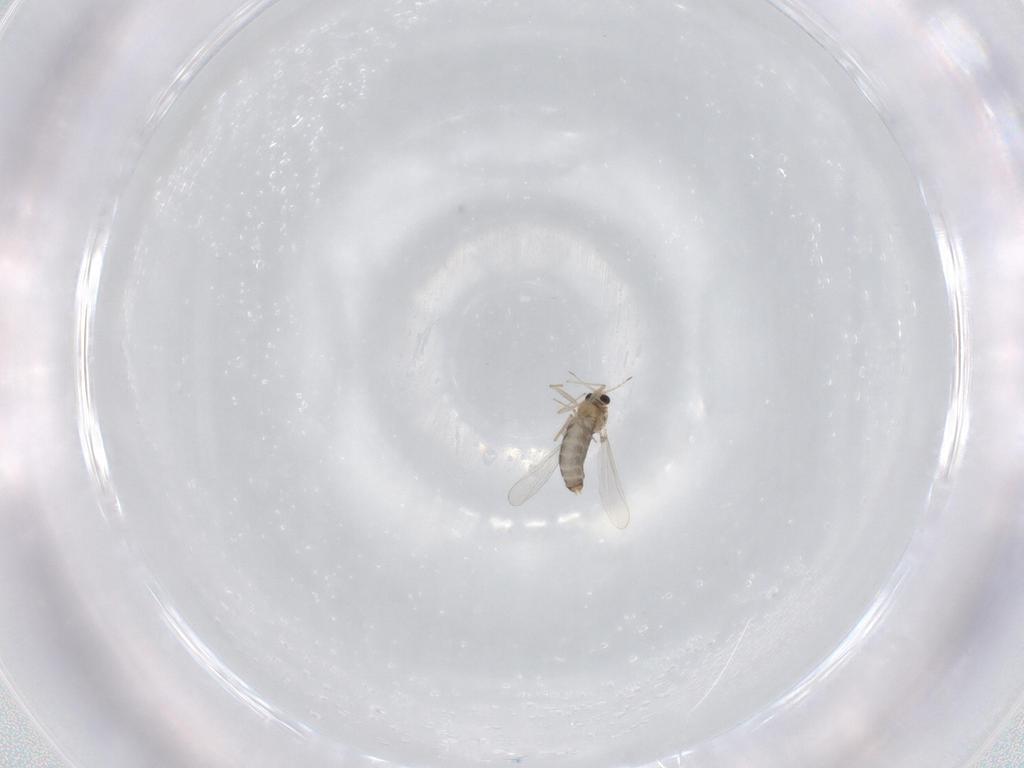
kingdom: Animalia
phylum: Arthropoda
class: Insecta
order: Diptera
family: Chironomidae
